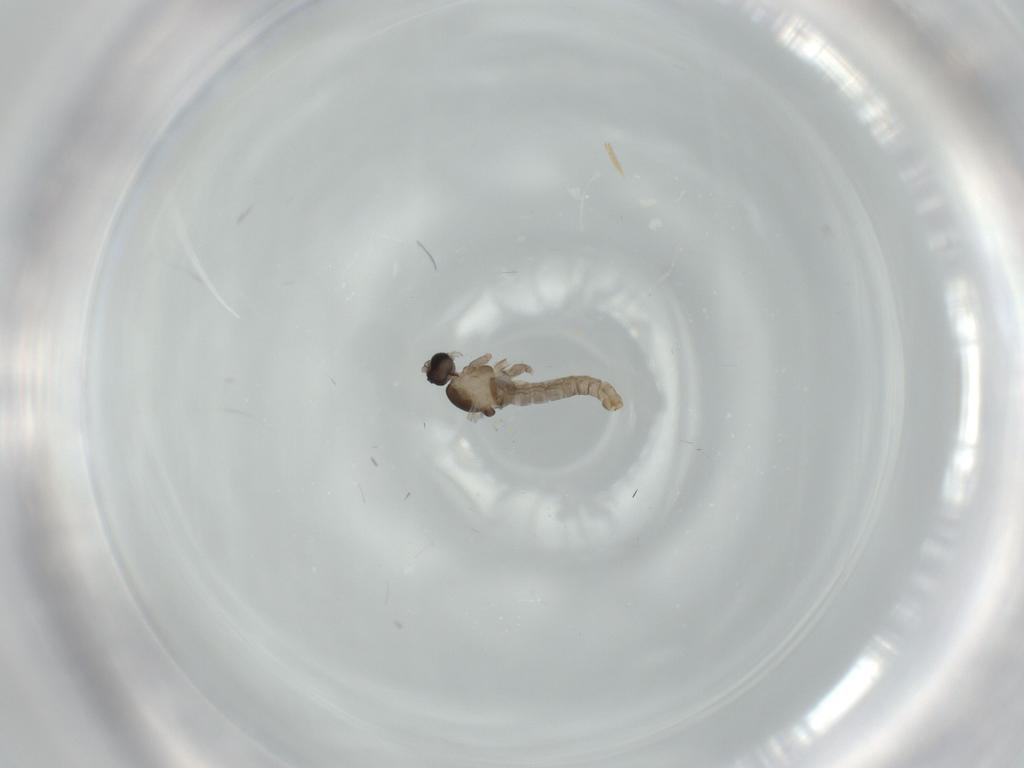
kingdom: Animalia
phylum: Arthropoda
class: Insecta
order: Diptera
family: Cecidomyiidae
